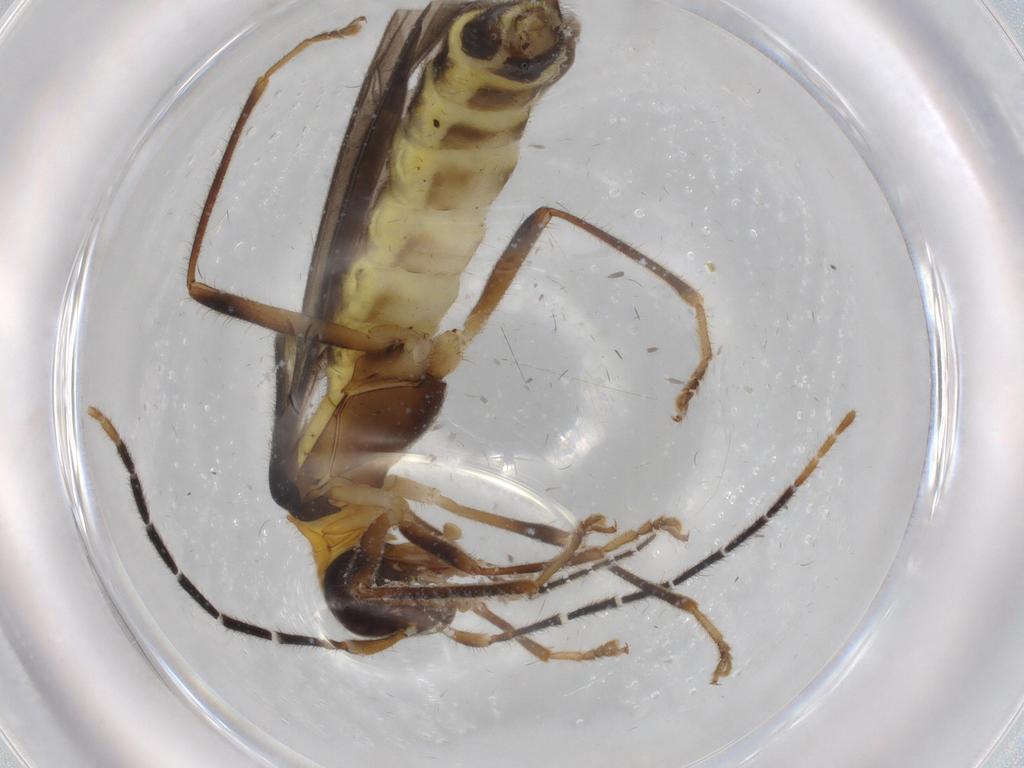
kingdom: Animalia
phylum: Arthropoda
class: Insecta
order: Coleoptera
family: Cantharidae
